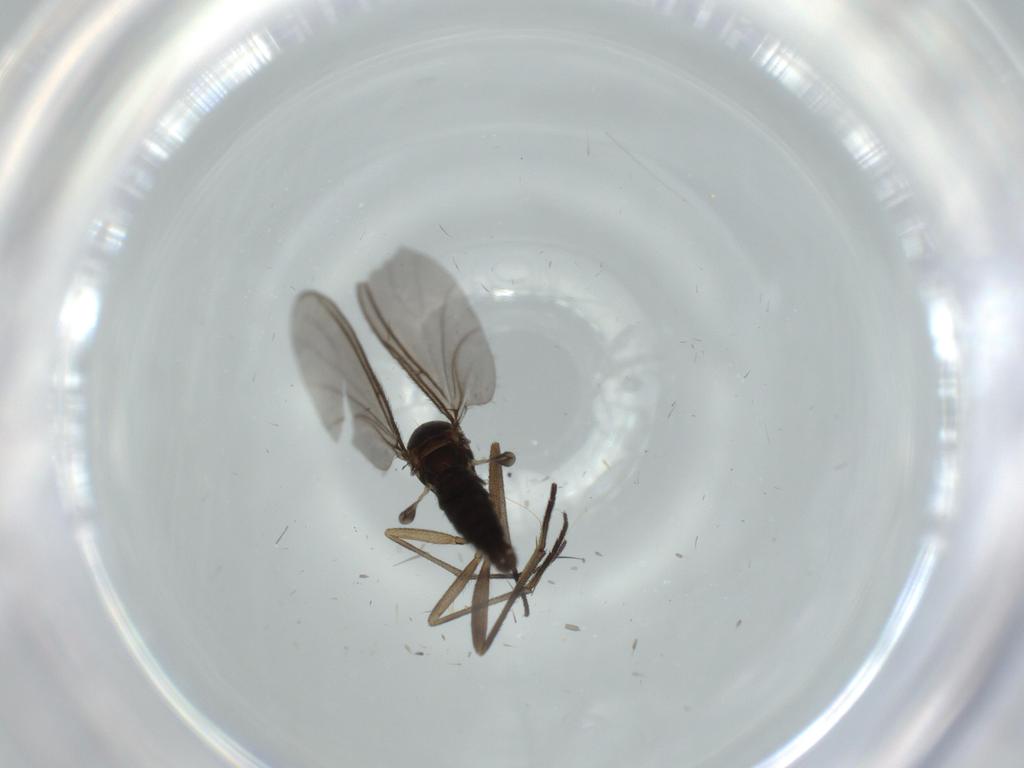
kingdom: Animalia
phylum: Arthropoda
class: Insecta
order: Diptera
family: Sciaridae
